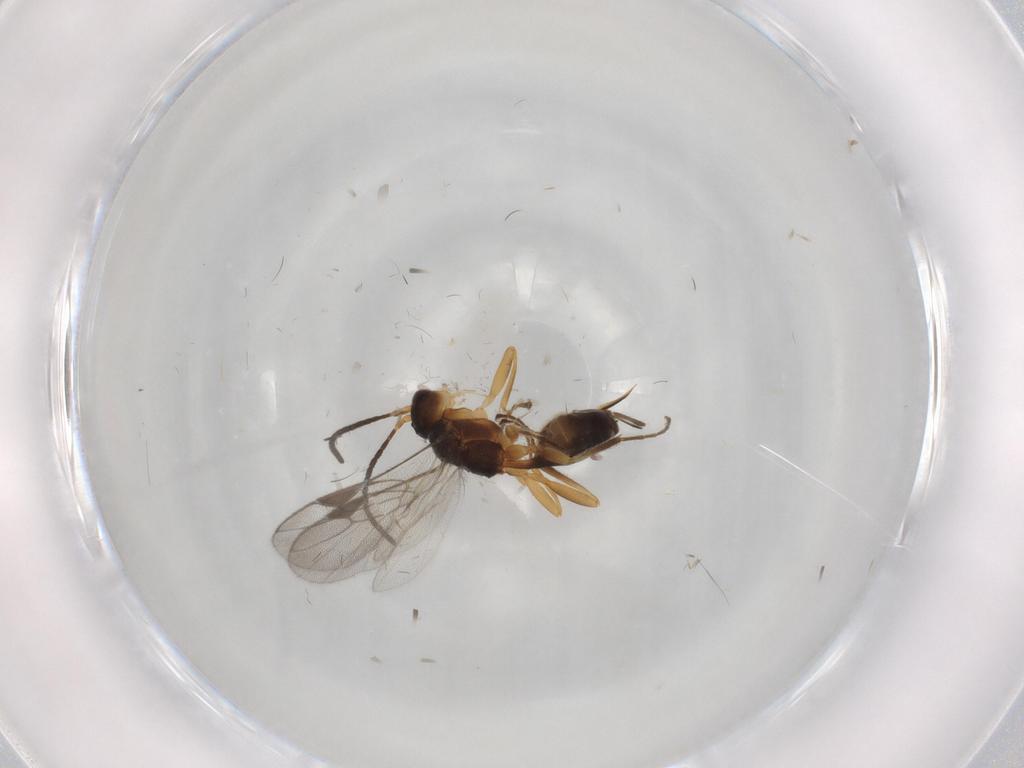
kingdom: Animalia
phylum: Arthropoda
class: Insecta
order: Hymenoptera
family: Braconidae
